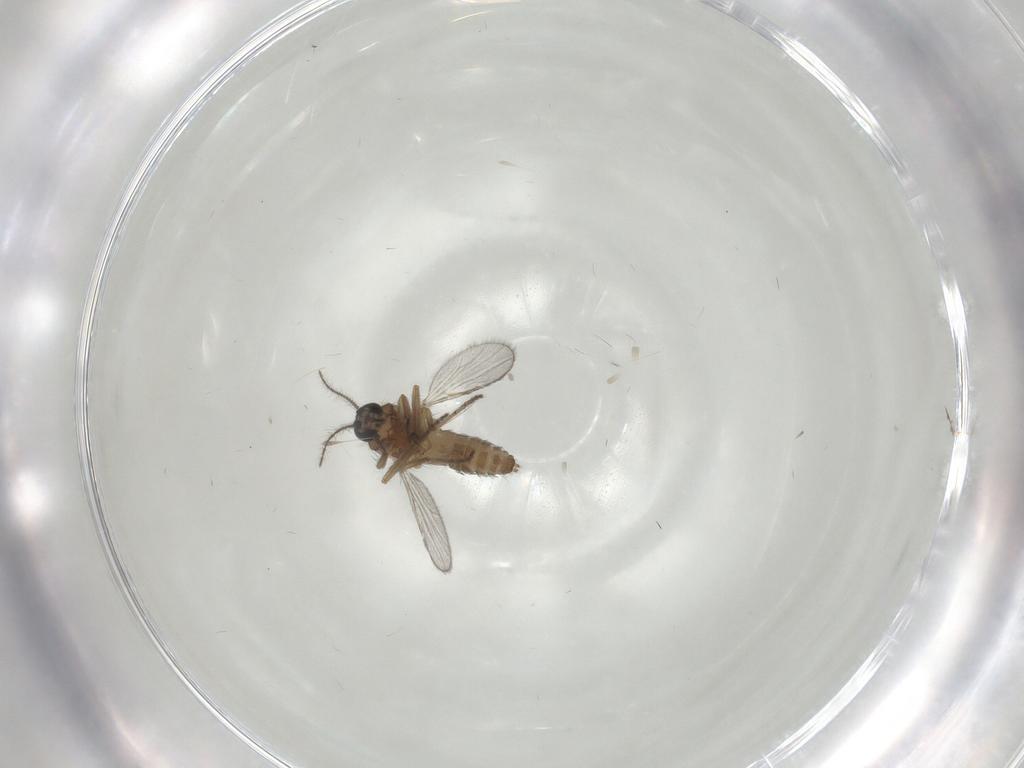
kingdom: Animalia
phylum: Arthropoda
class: Insecta
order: Diptera
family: Ceratopogonidae
